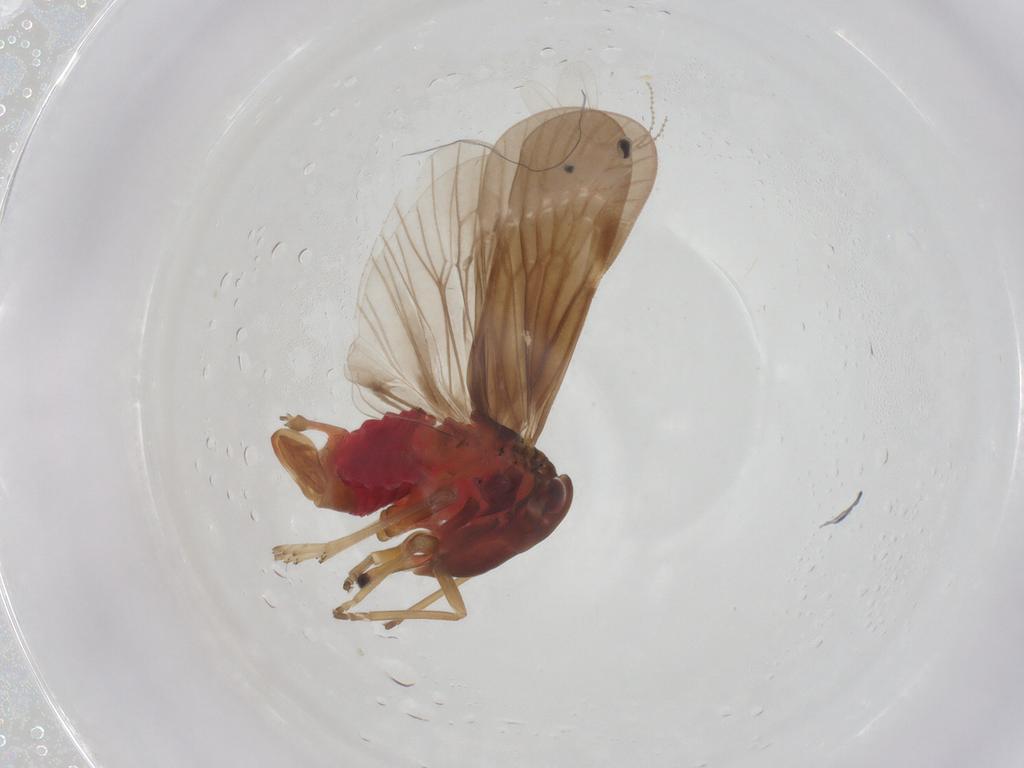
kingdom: Animalia
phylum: Arthropoda
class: Insecta
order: Hemiptera
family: Derbidae
